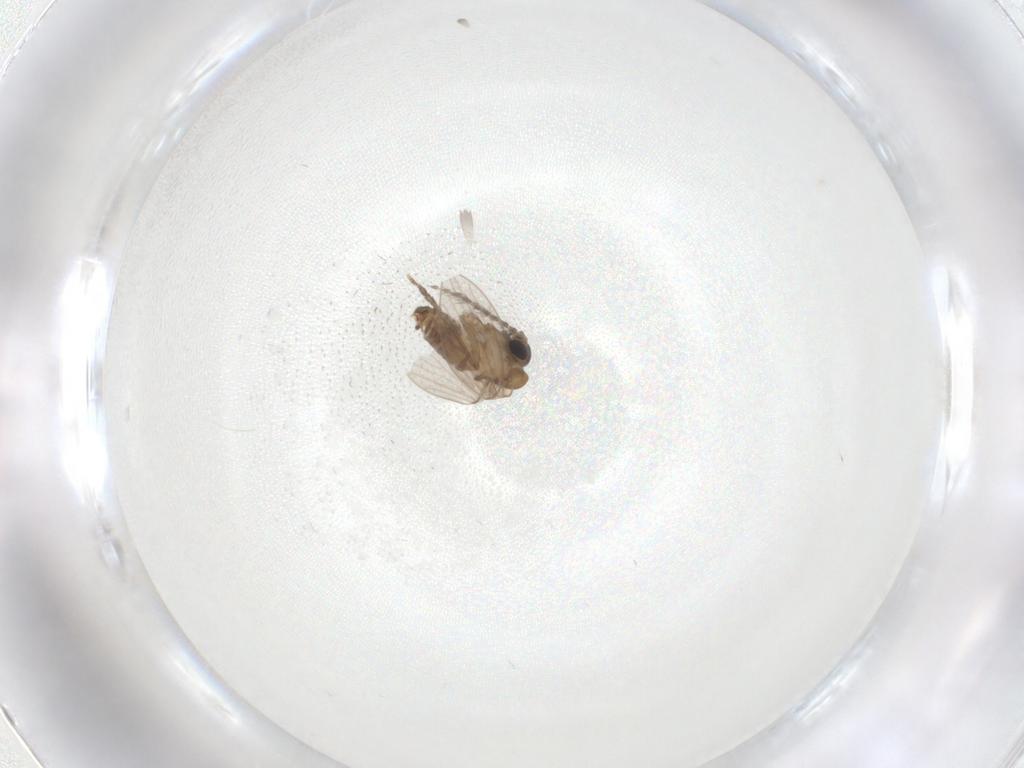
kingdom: Animalia
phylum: Arthropoda
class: Insecta
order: Diptera
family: Psychodidae
